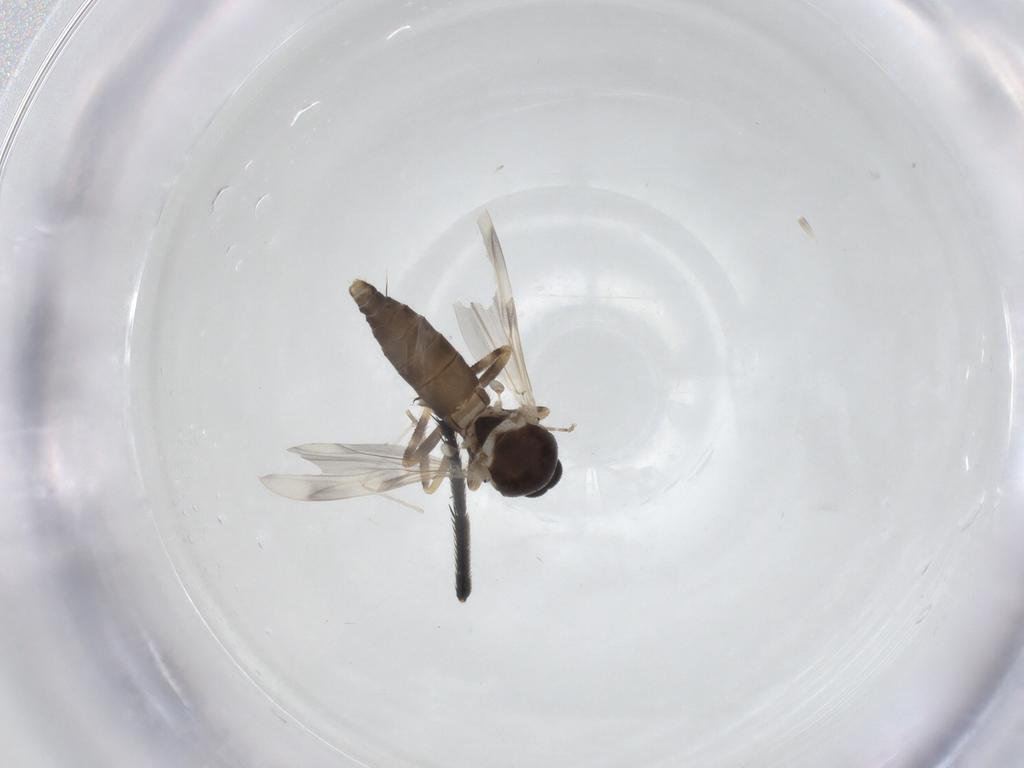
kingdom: Animalia
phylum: Arthropoda
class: Insecta
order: Diptera
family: Ceratopogonidae
